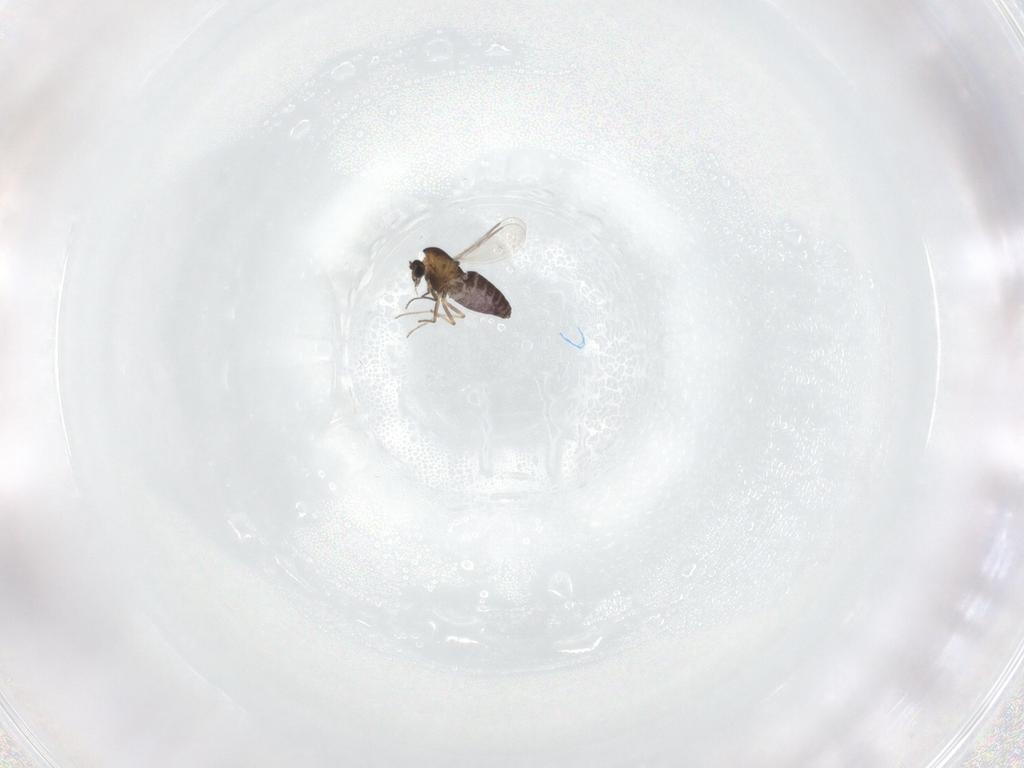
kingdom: Animalia
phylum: Arthropoda
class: Insecta
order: Diptera
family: Chironomidae
